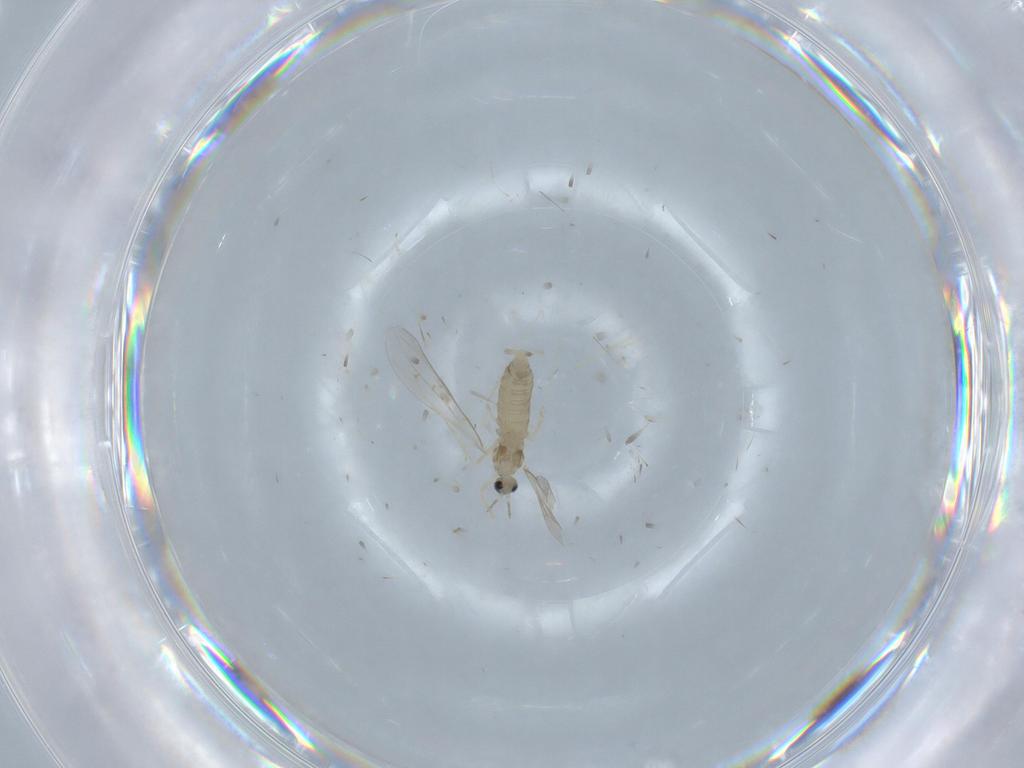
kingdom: Animalia
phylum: Arthropoda
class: Insecta
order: Diptera
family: Cecidomyiidae
